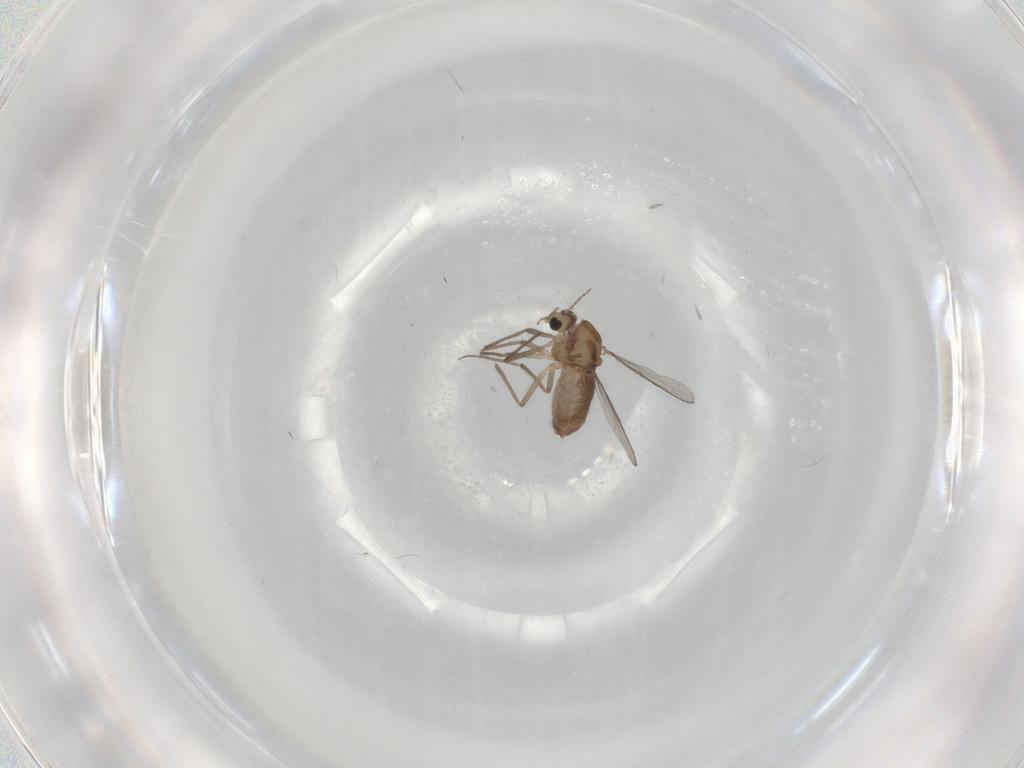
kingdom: Animalia
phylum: Arthropoda
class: Insecta
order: Diptera
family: Chironomidae
